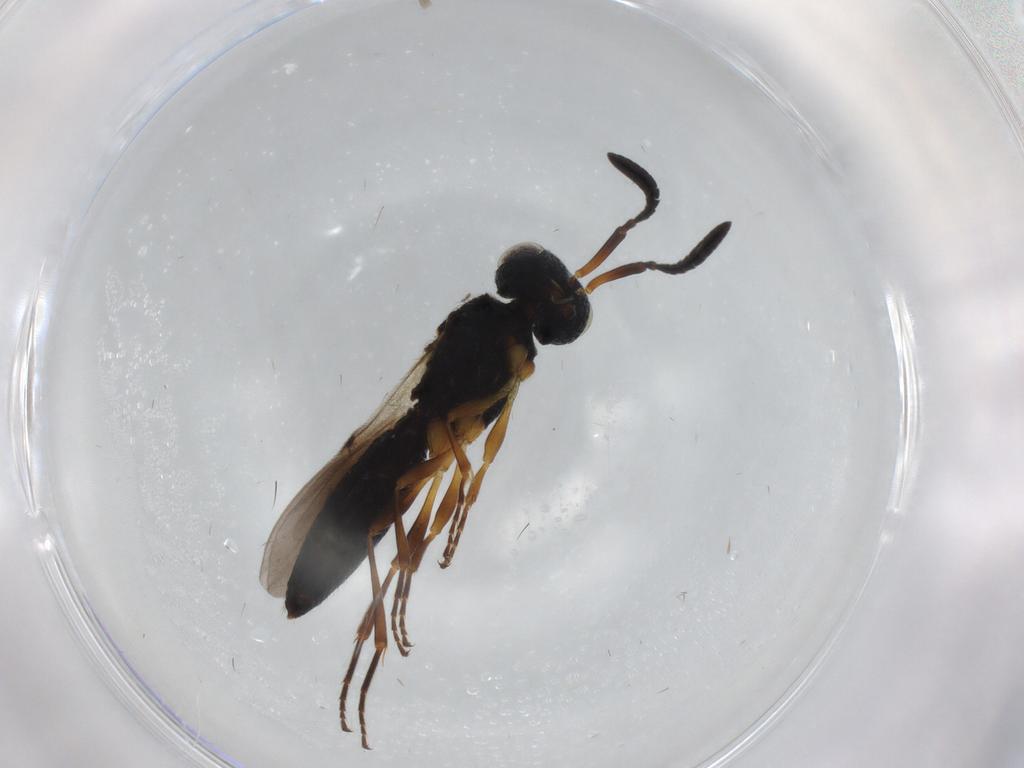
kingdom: Animalia
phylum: Arthropoda
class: Insecta
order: Hymenoptera
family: Scelionidae
